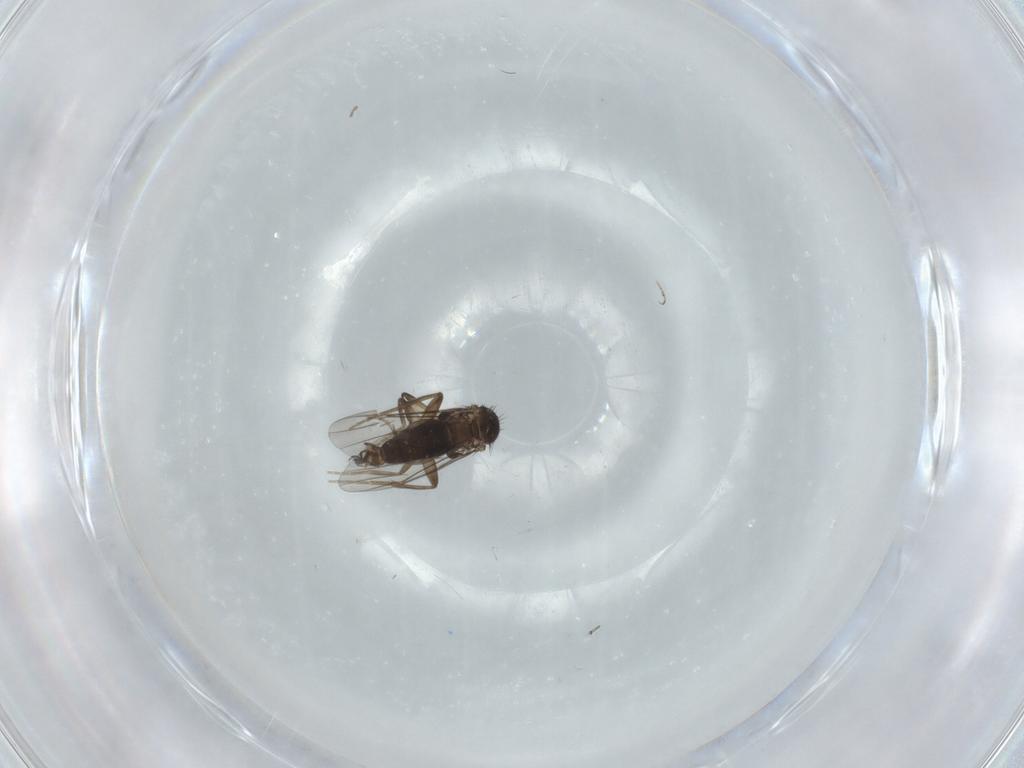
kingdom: Animalia
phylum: Arthropoda
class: Insecta
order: Diptera
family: Phoridae
